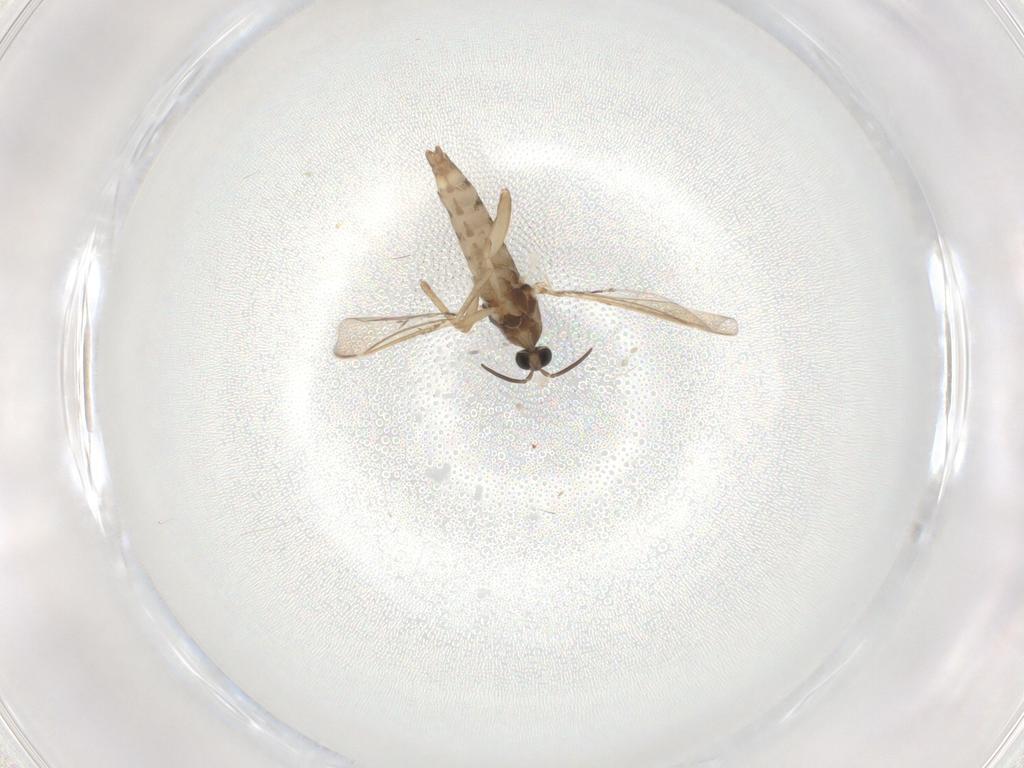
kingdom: Animalia
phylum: Arthropoda
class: Insecta
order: Diptera
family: Cecidomyiidae
